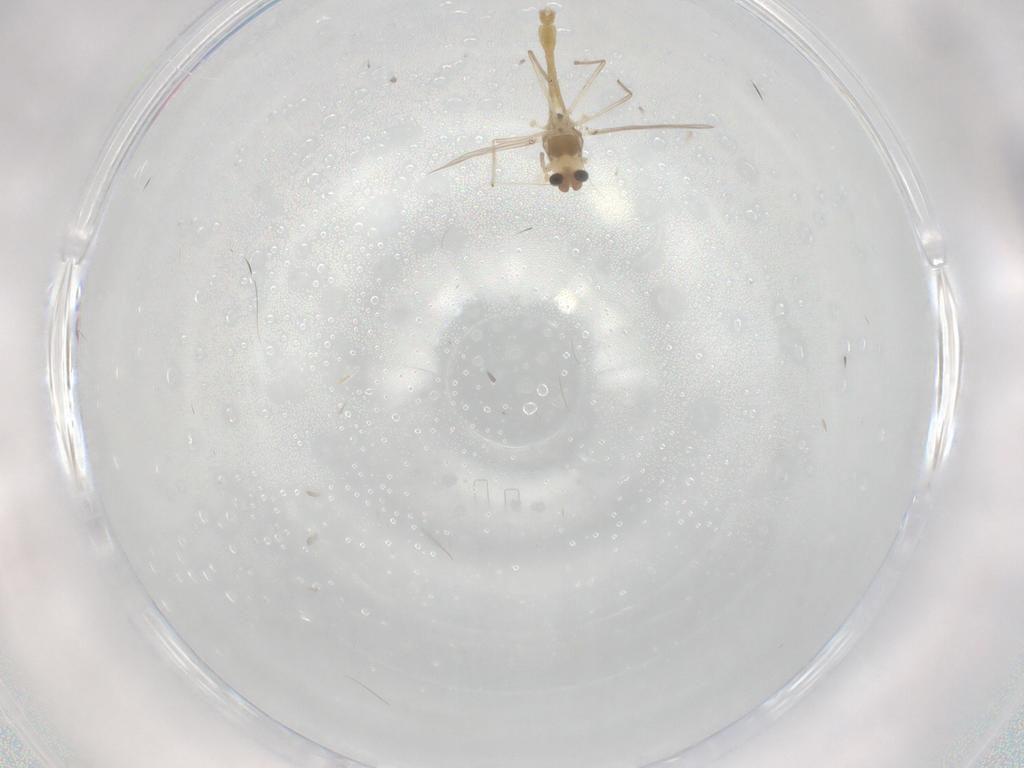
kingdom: Animalia
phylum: Arthropoda
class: Insecta
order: Diptera
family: Chironomidae
